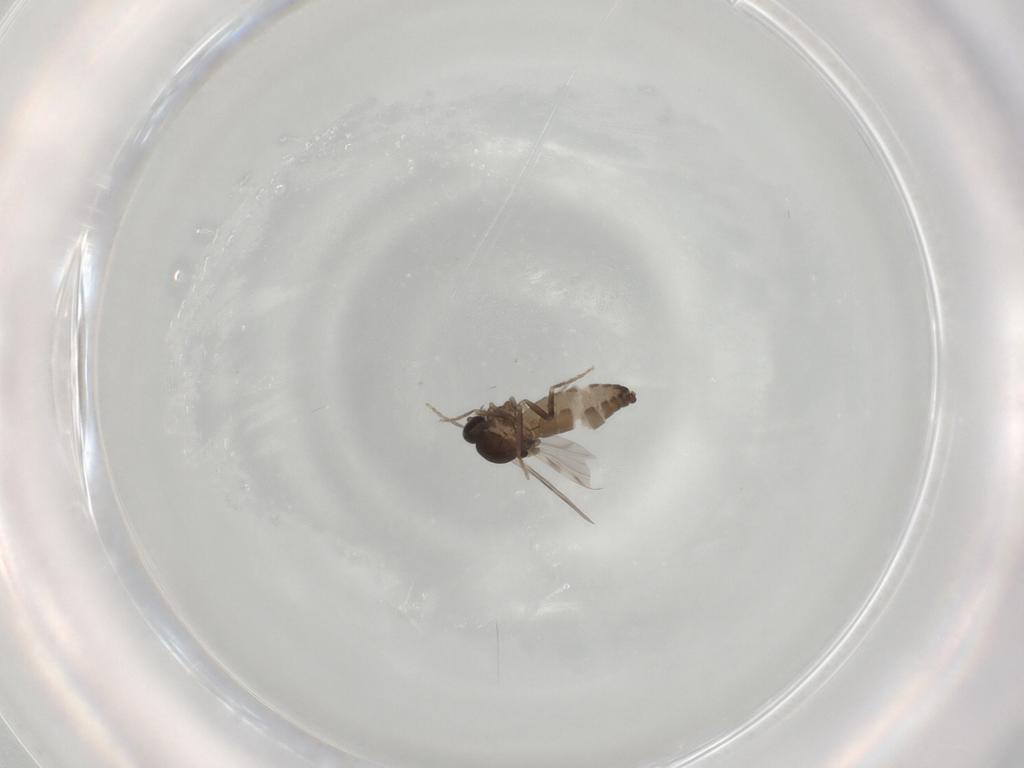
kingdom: Animalia
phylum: Arthropoda
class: Insecta
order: Diptera
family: Ceratopogonidae
